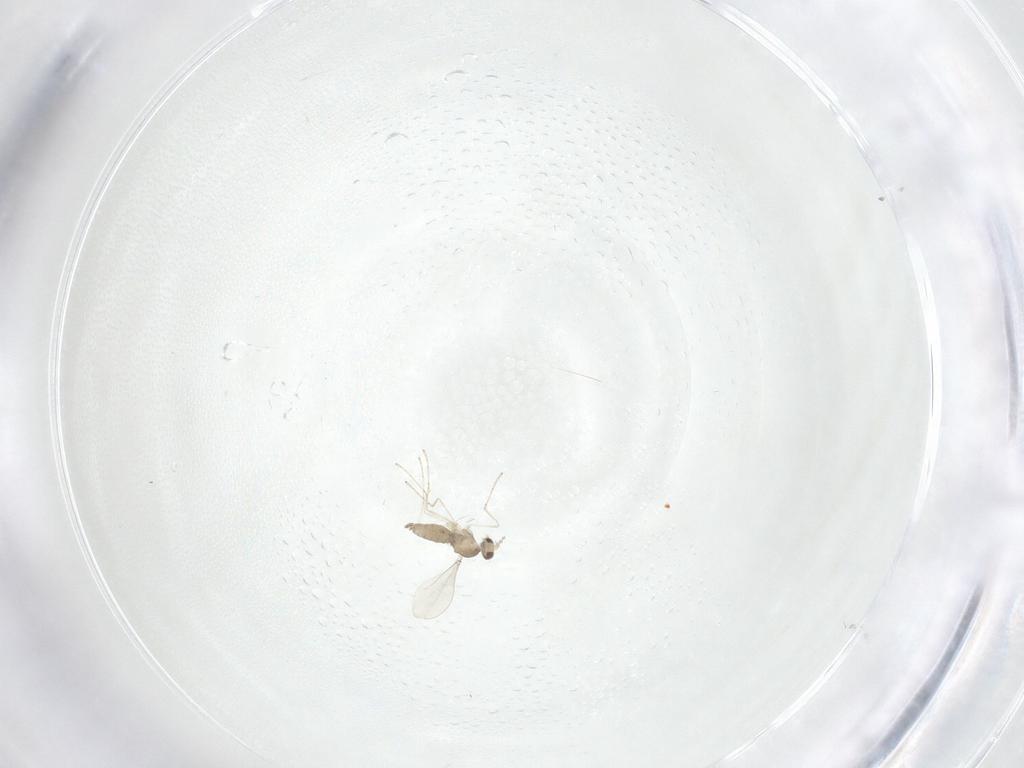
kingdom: Animalia
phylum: Arthropoda
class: Insecta
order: Diptera
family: Cecidomyiidae
